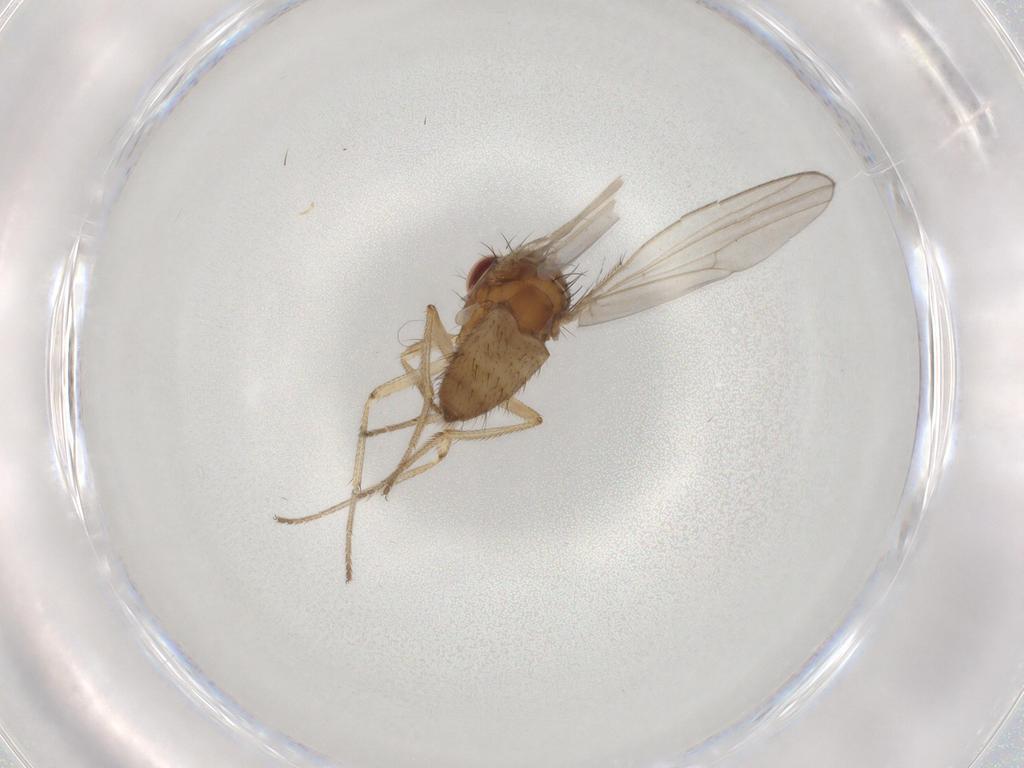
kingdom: Animalia
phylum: Arthropoda
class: Insecta
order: Diptera
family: Drosophilidae
